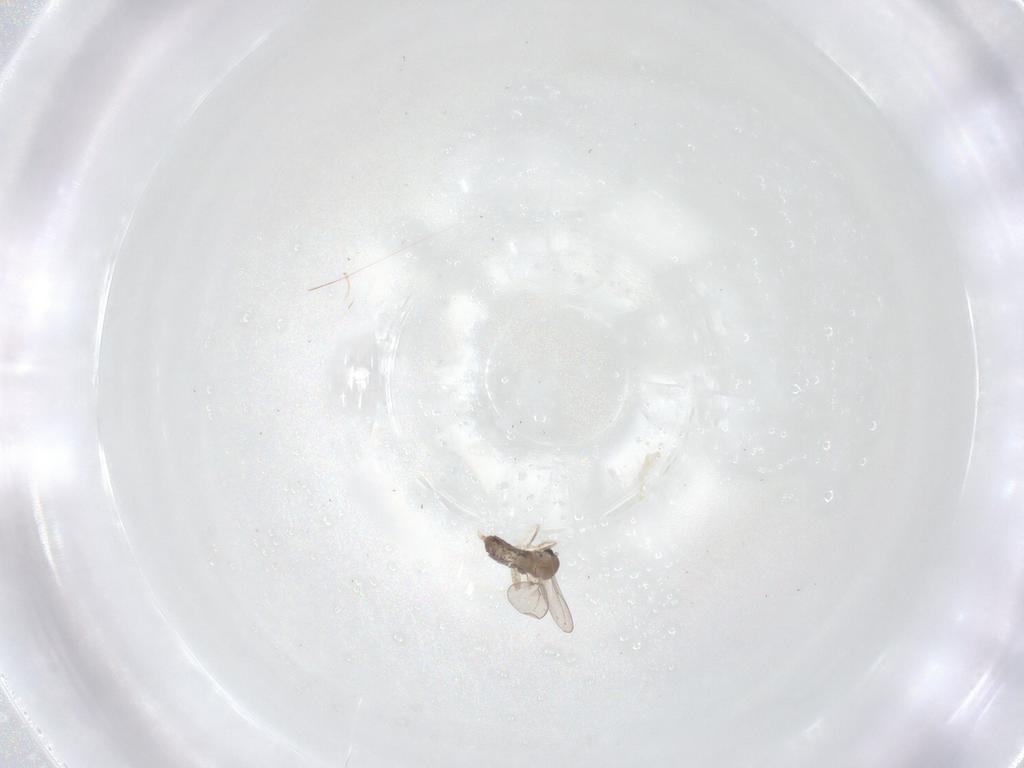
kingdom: Animalia
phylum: Arthropoda
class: Insecta
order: Diptera
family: Cecidomyiidae
